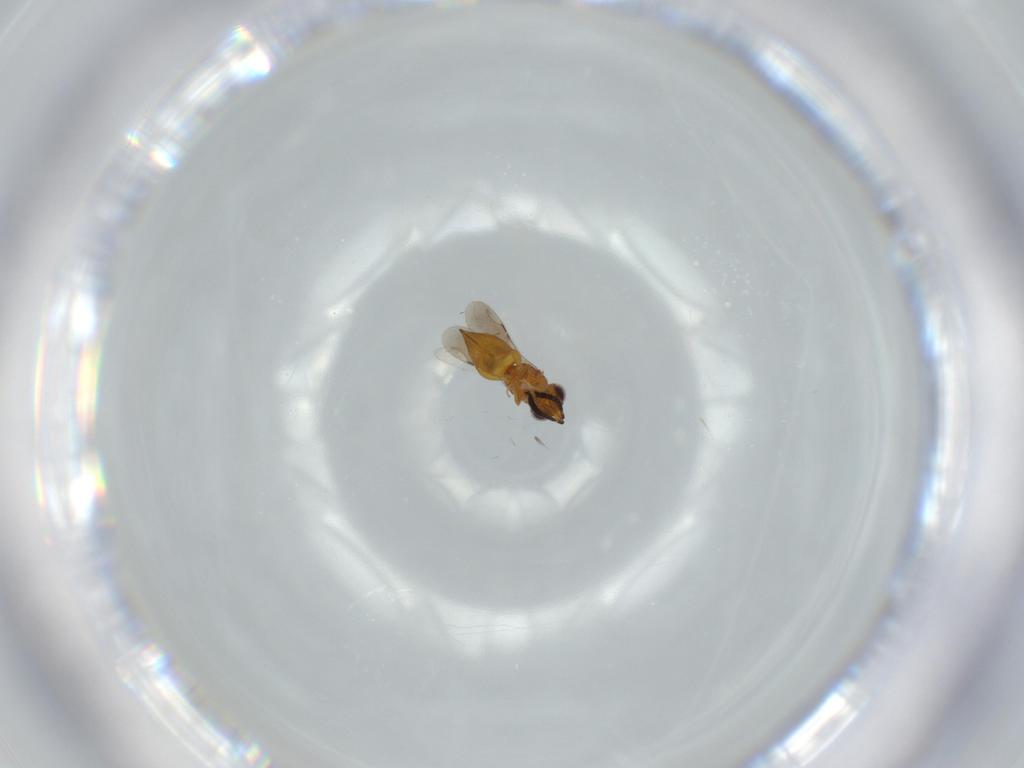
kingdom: Animalia
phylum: Arthropoda
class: Insecta
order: Hymenoptera
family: Ceraphronidae
